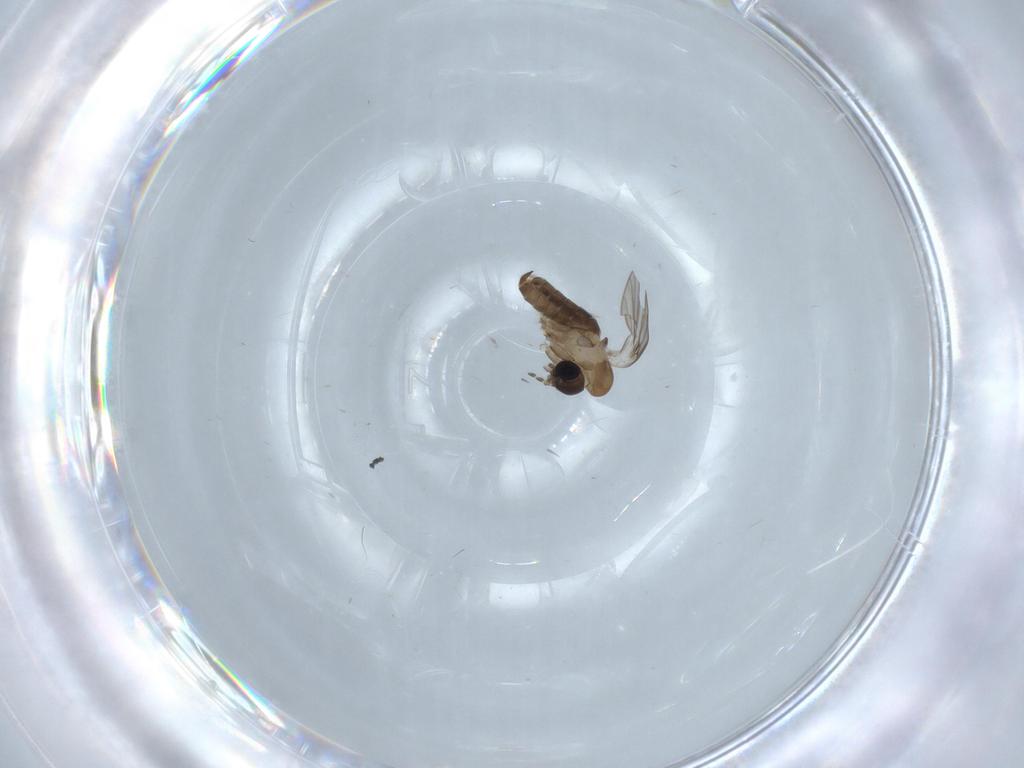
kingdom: Animalia
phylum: Arthropoda
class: Insecta
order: Diptera
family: Psychodidae
